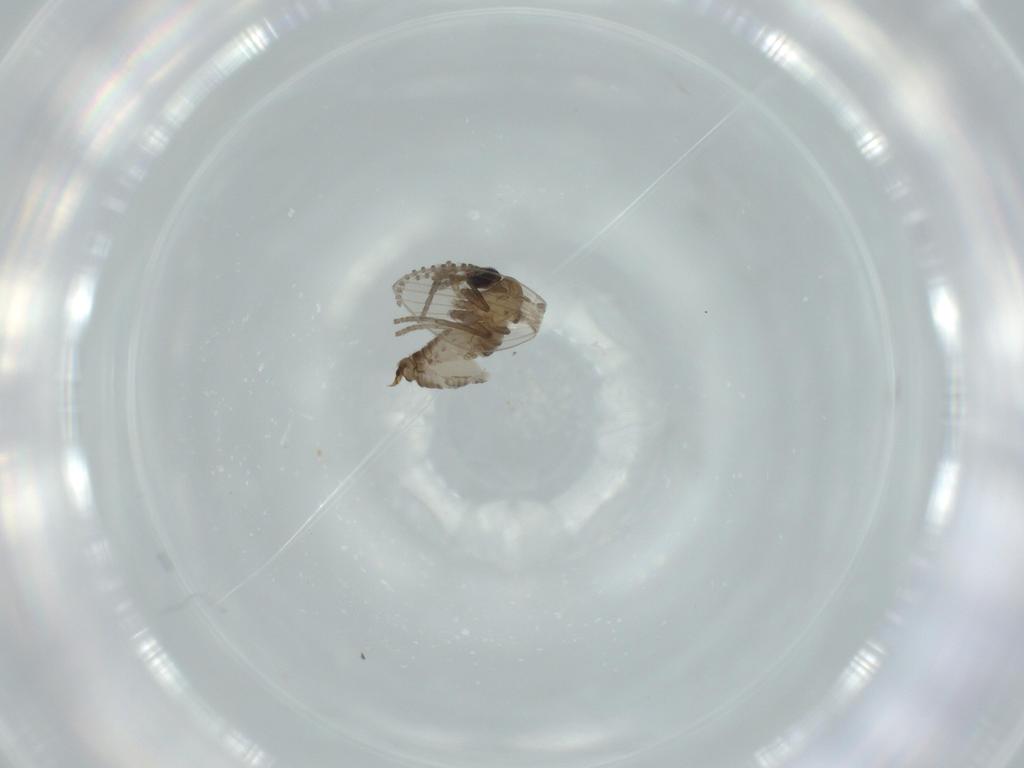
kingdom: Animalia
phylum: Arthropoda
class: Insecta
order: Diptera
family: Psychodidae
